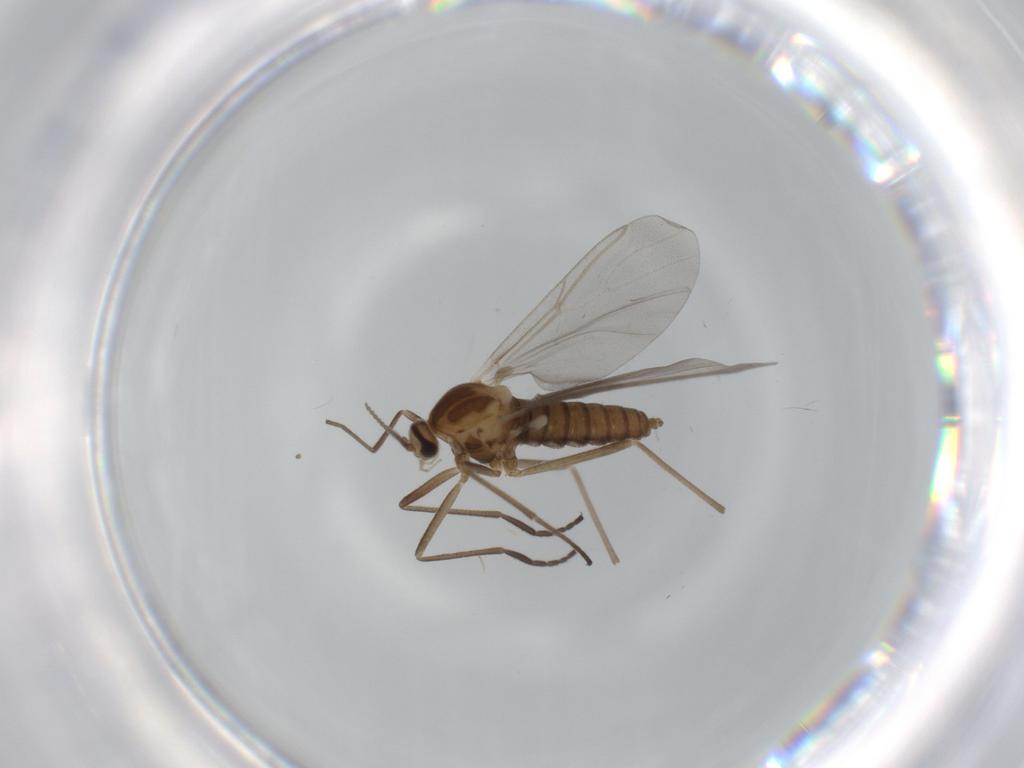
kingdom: Animalia
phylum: Arthropoda
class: Insecta
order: Diptera
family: Cecidomyiidae
